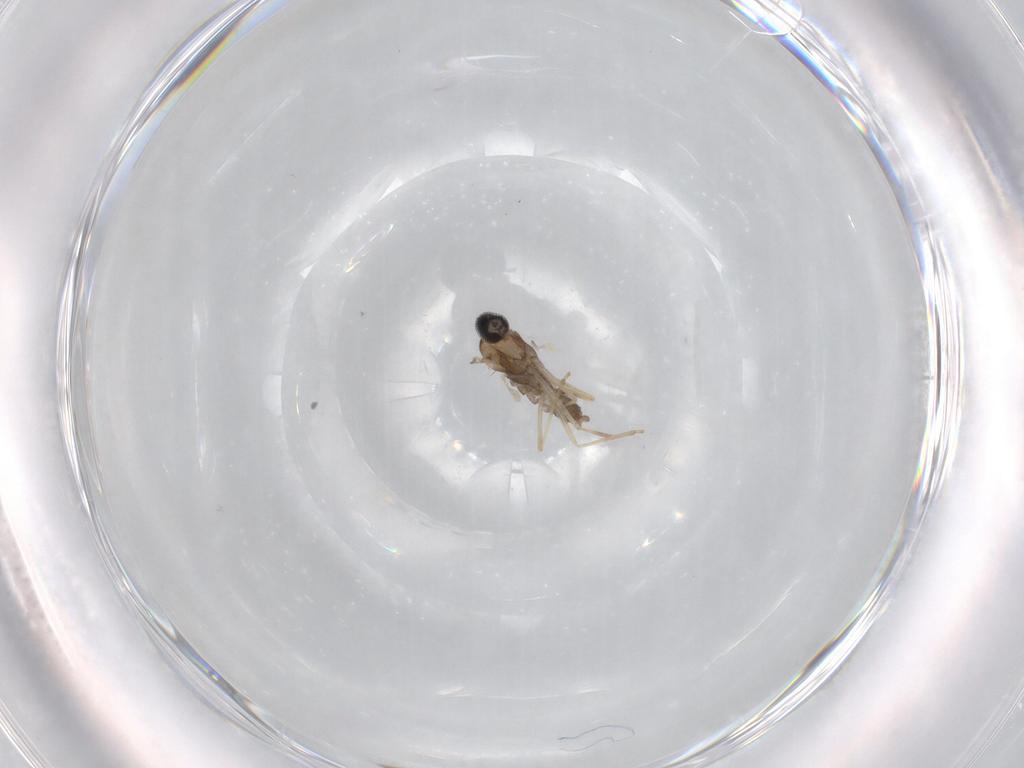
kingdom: Animalia
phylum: Arthropoda
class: Insecta
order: Diptera
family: Cecidomyiidae
